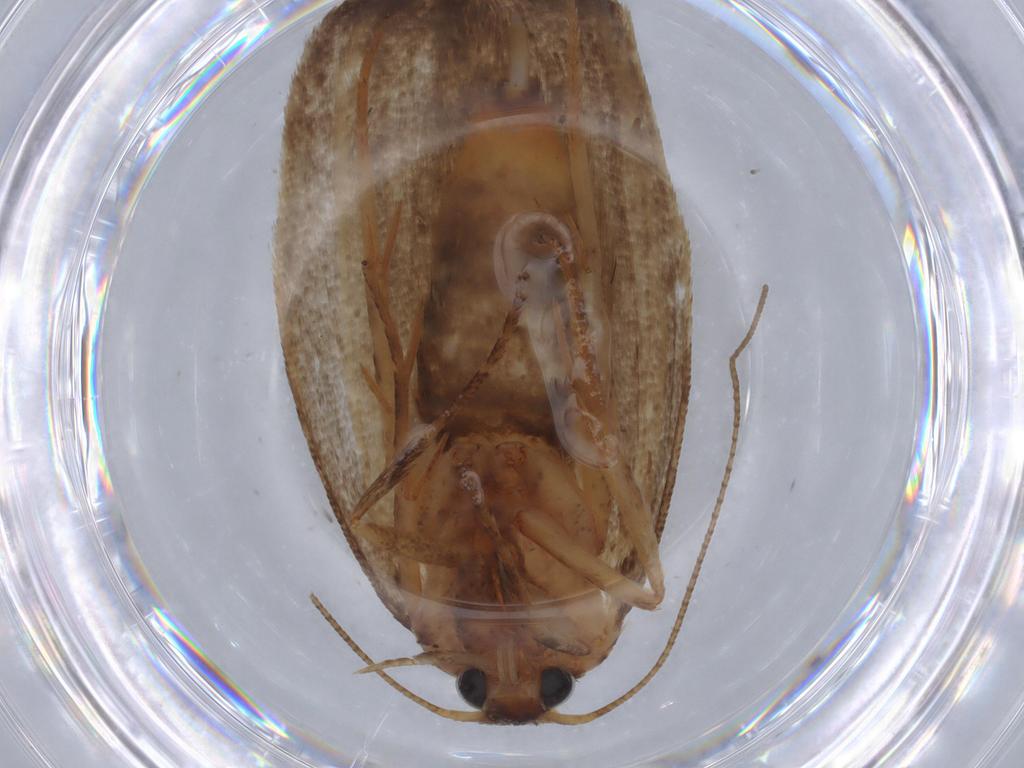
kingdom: Animalia
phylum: Arthropoda
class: Insecta
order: Lepidoptera
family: Oecophoridae
